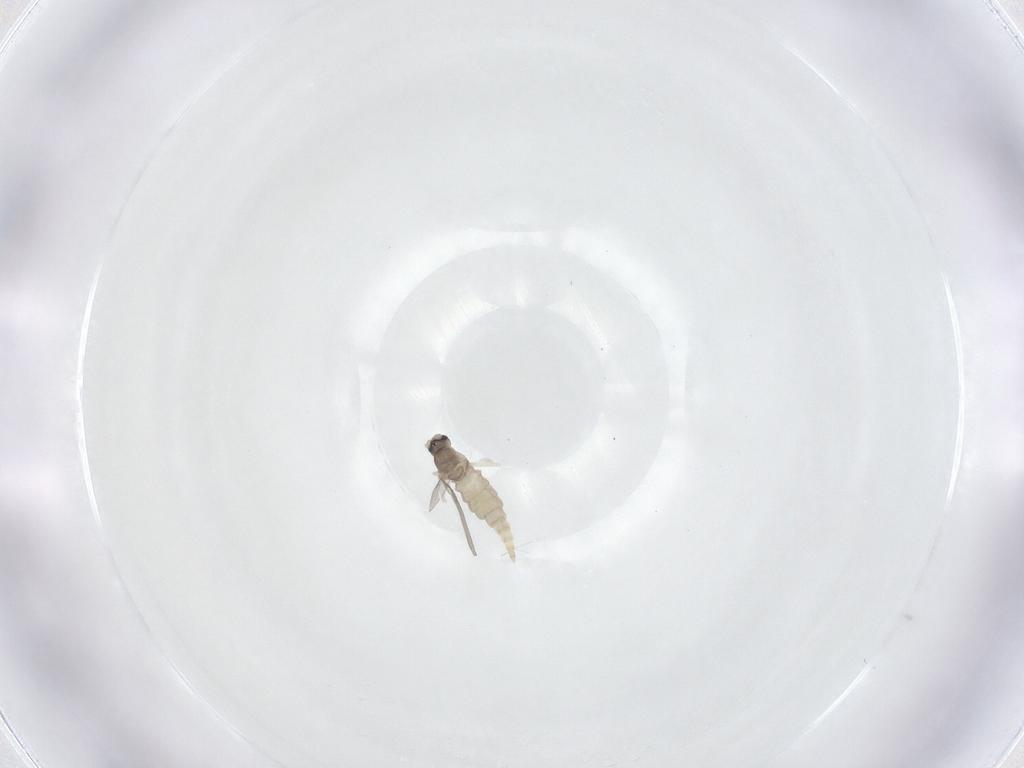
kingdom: Animalia
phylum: Arthropoda
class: Insecta
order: Diptera
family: Cecidomyiidae
